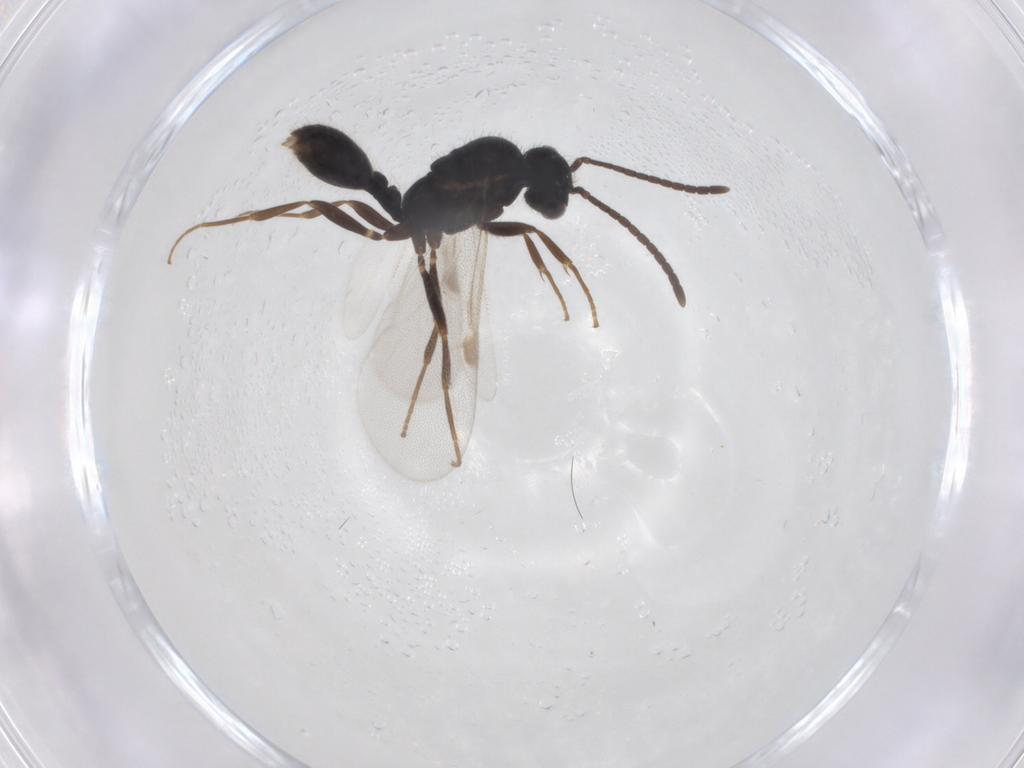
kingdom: Animalia
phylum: Arthropoda
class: Insecta
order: Hymenoptera
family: Formicidae
